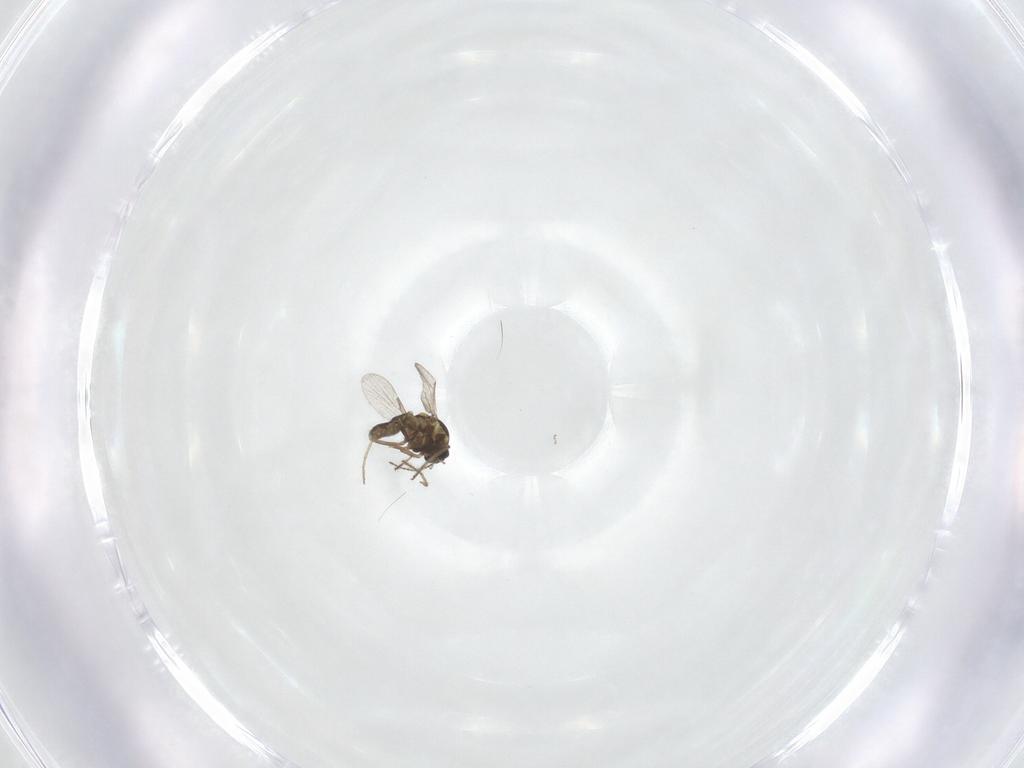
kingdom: Animalia
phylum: Arthropoda
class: Insecta
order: Diptera
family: Ceratopogonidae
